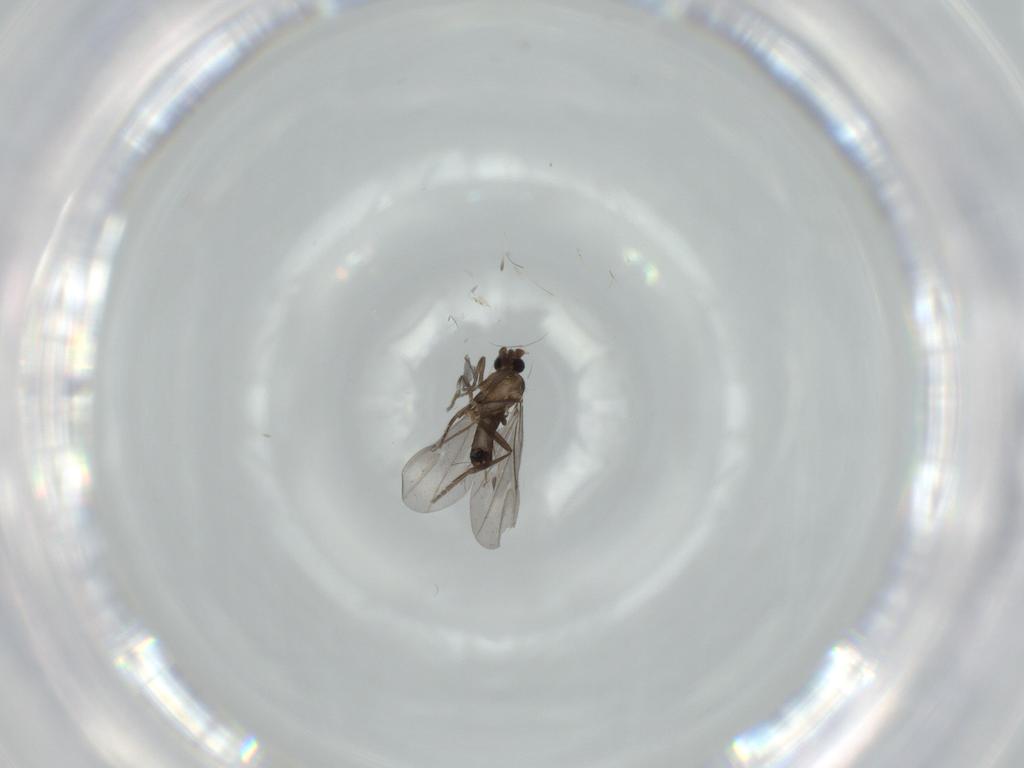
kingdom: Animalia
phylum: Arthropoda
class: Insecta
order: Diptera
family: Phoridae
